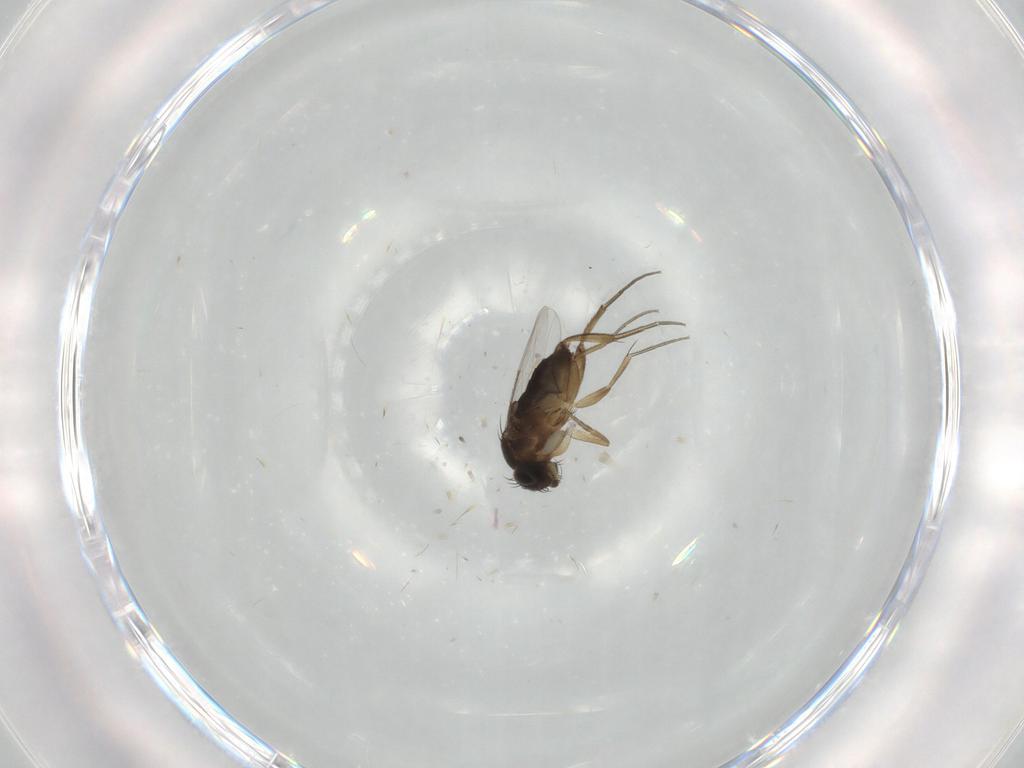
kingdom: Animalia
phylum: Arthropoda
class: Insecta
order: Diptera
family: Phoridae
